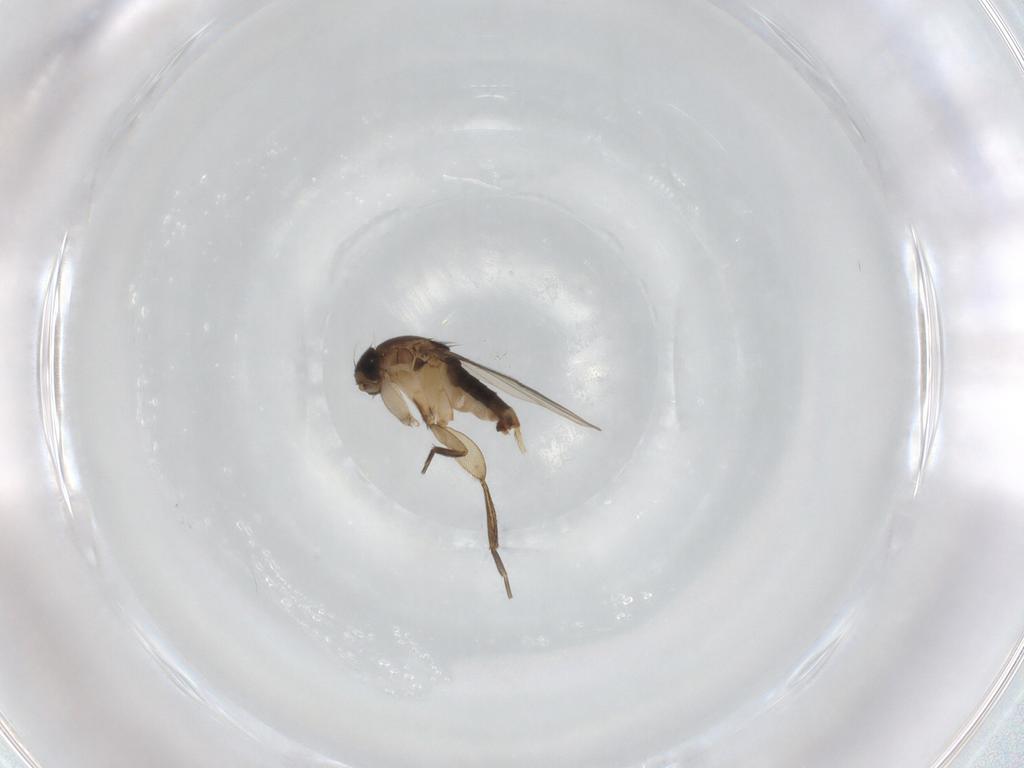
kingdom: Animalia
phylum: Arthropoda
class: Insecta
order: Diptera
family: Phoridae
